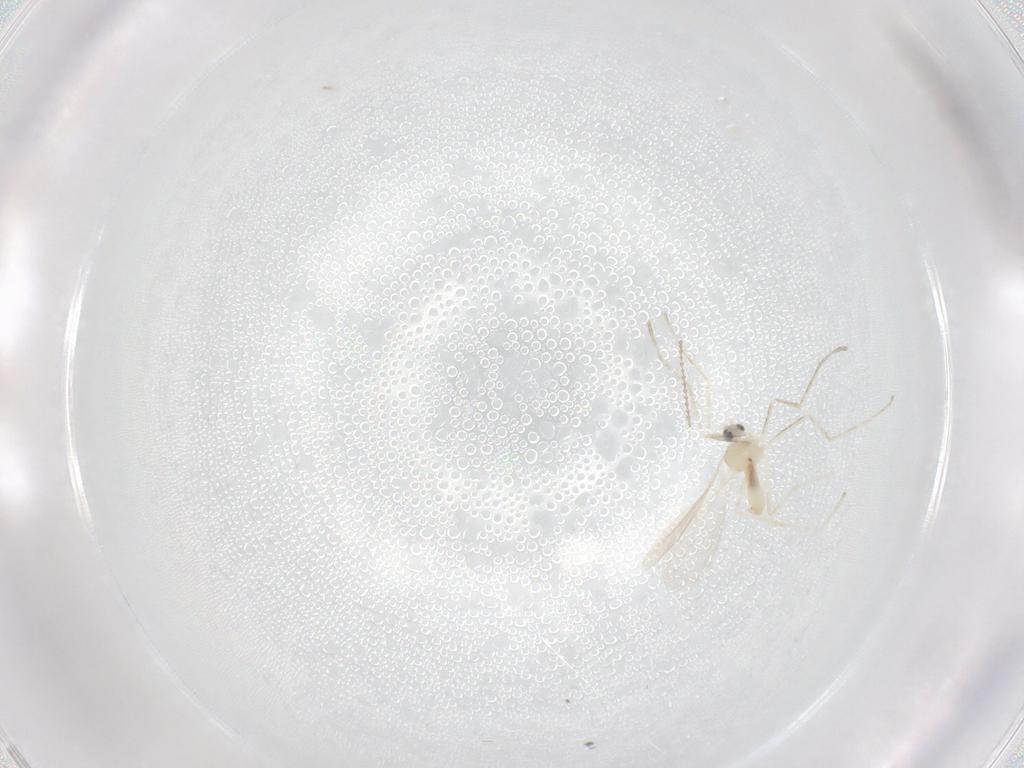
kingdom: Animalia
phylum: Arthropoda
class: Insecta
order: Diptera
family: Cecidomyiidae
